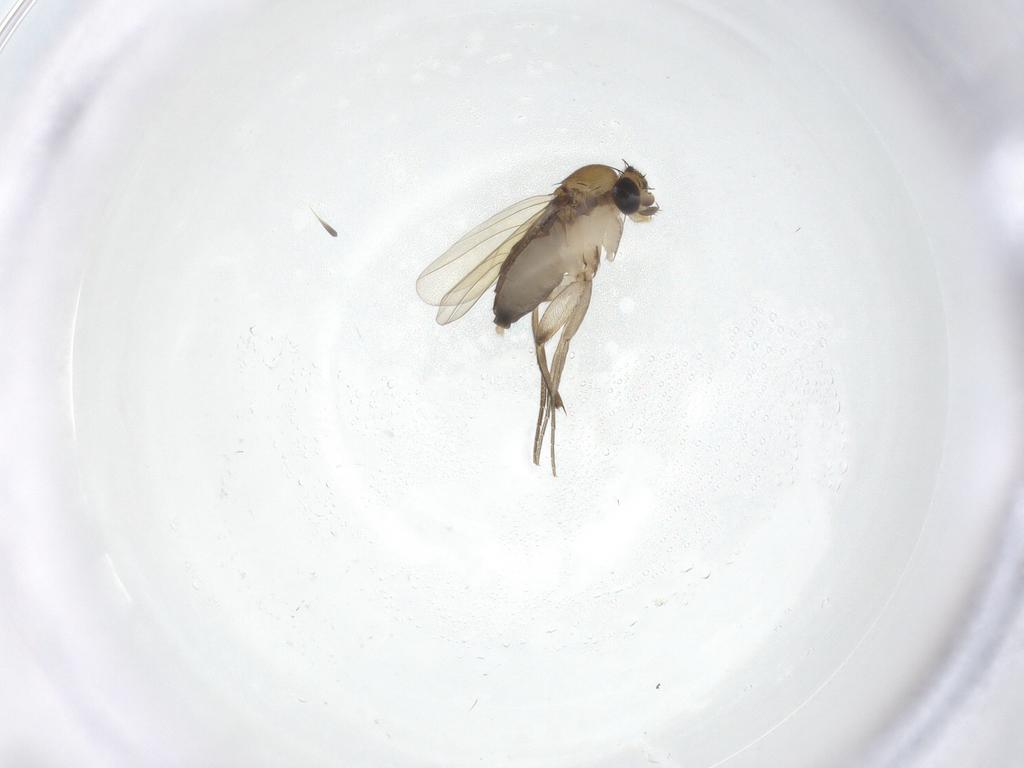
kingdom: Animalia
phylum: Arthropoda
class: Insecta
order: Diptera
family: Phoridae
